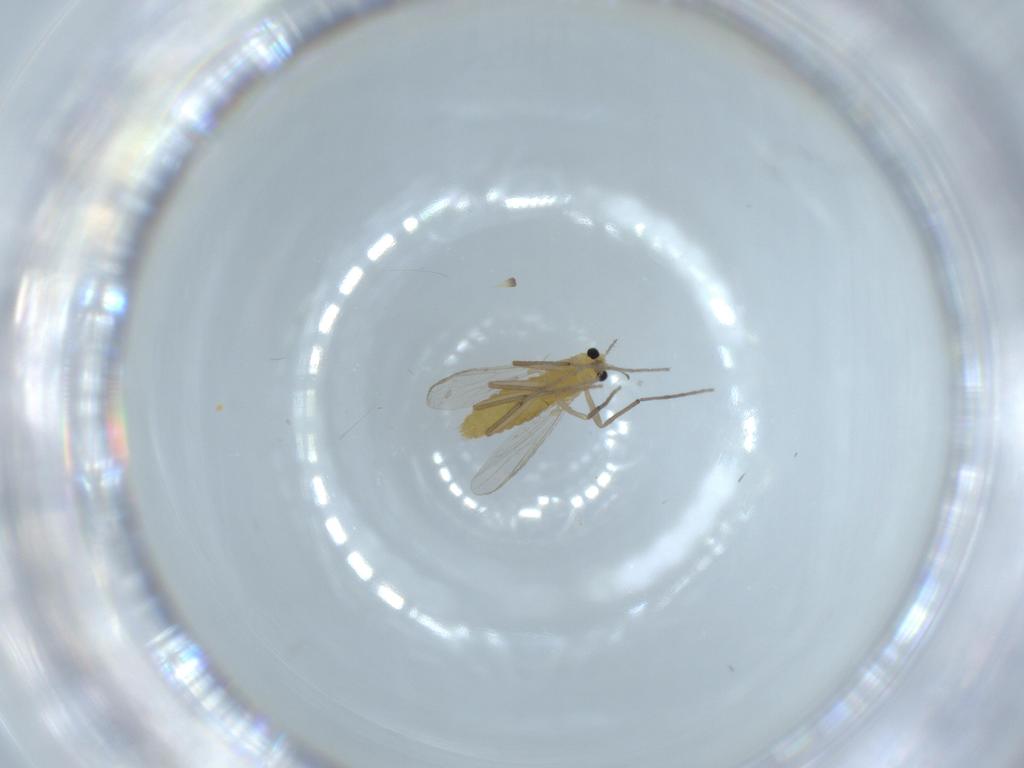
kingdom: Animalia
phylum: Arthropoda
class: Insecta
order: Diptera
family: Chironomidae
